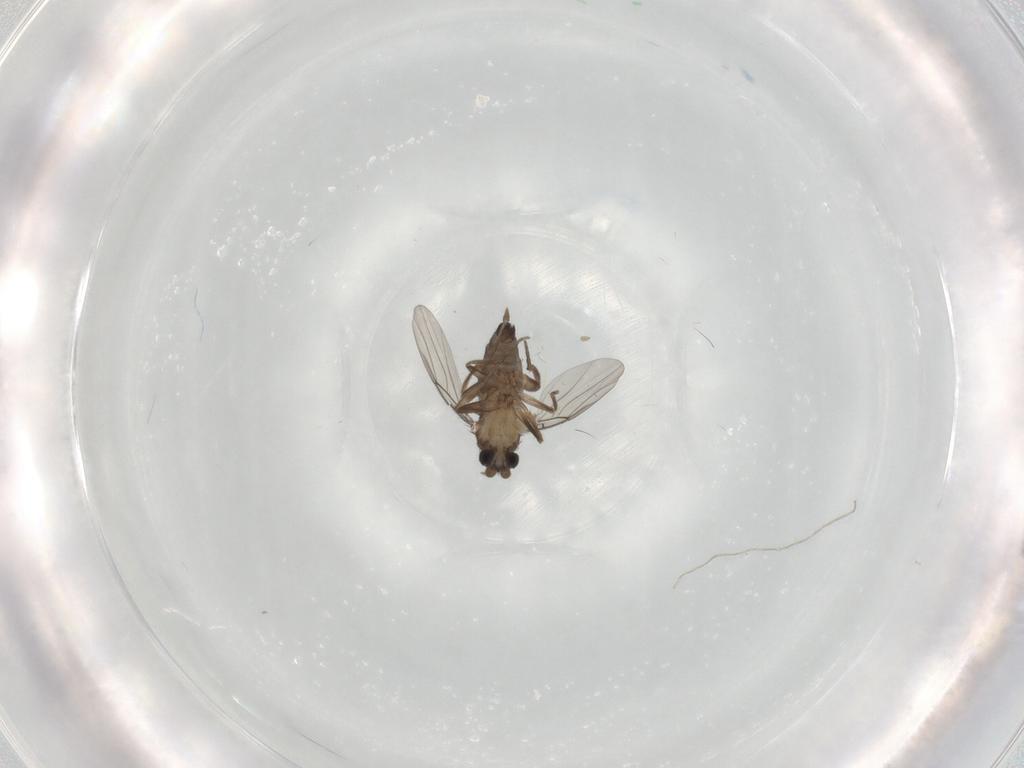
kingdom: Animalia
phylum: Arthropoda
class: Insecta
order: Diptera
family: Phoridae
